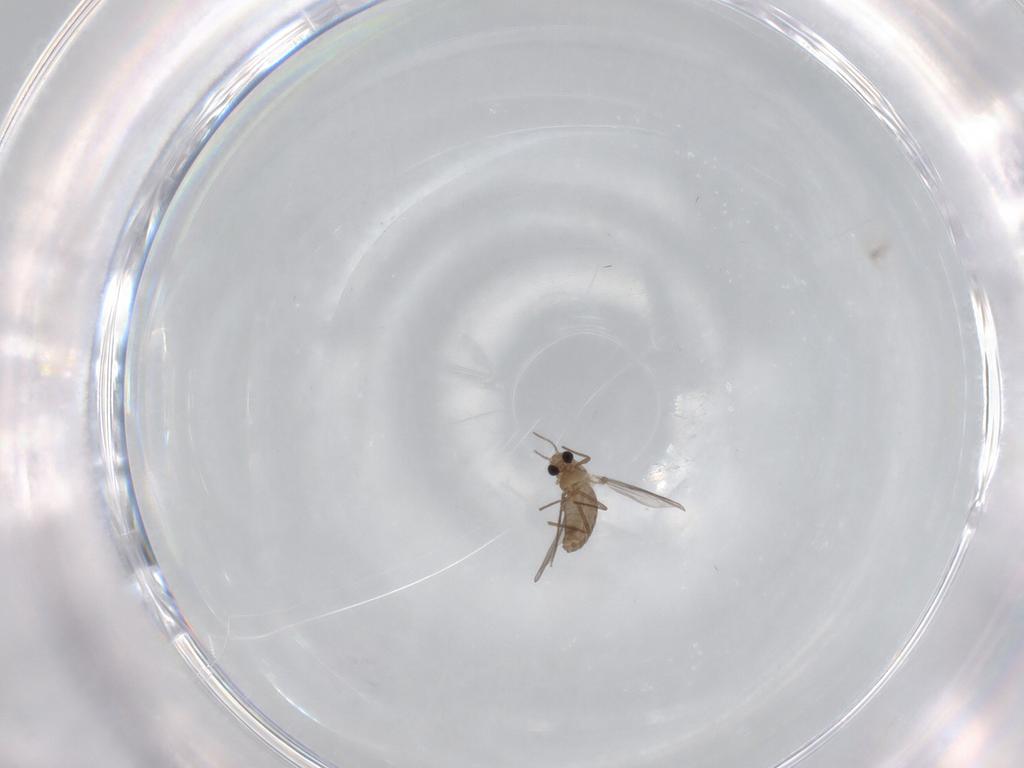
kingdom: Animalia
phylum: Arthropoda
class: Insecta
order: Diptera
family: Chironomidae
